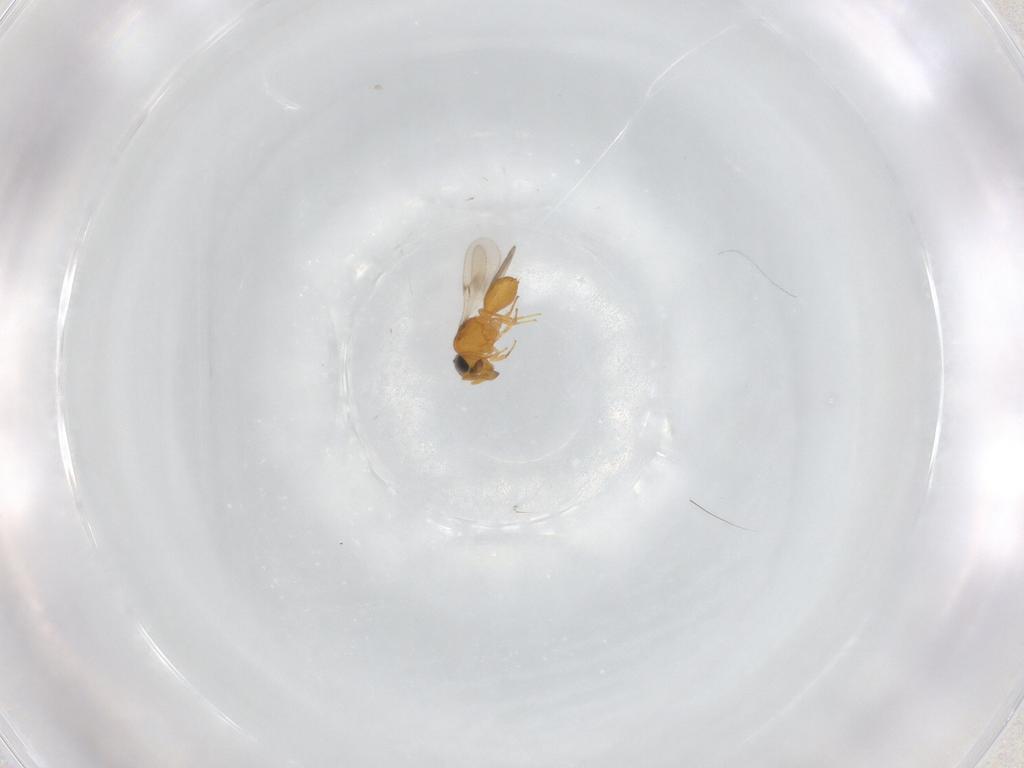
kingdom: Animalia
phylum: Arthropoda
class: Insecta
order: Hymenoptera
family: Scelionidae
